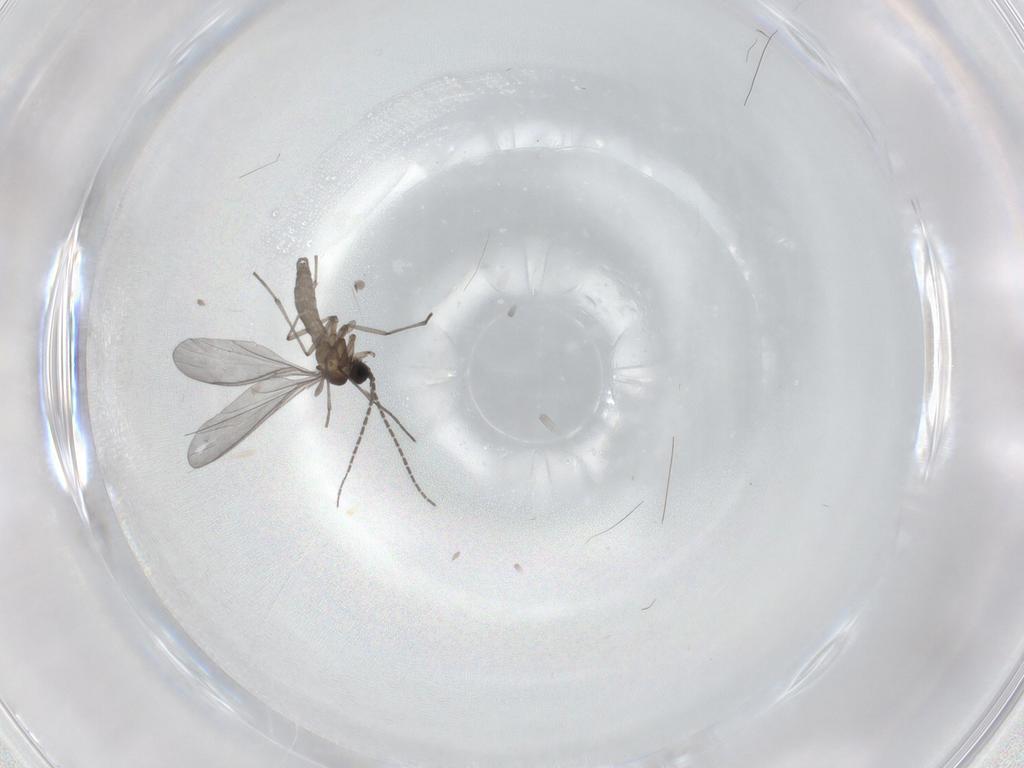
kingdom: Animalia
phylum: Arthropoda
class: Insecta
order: Diptera
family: Sciaridae
